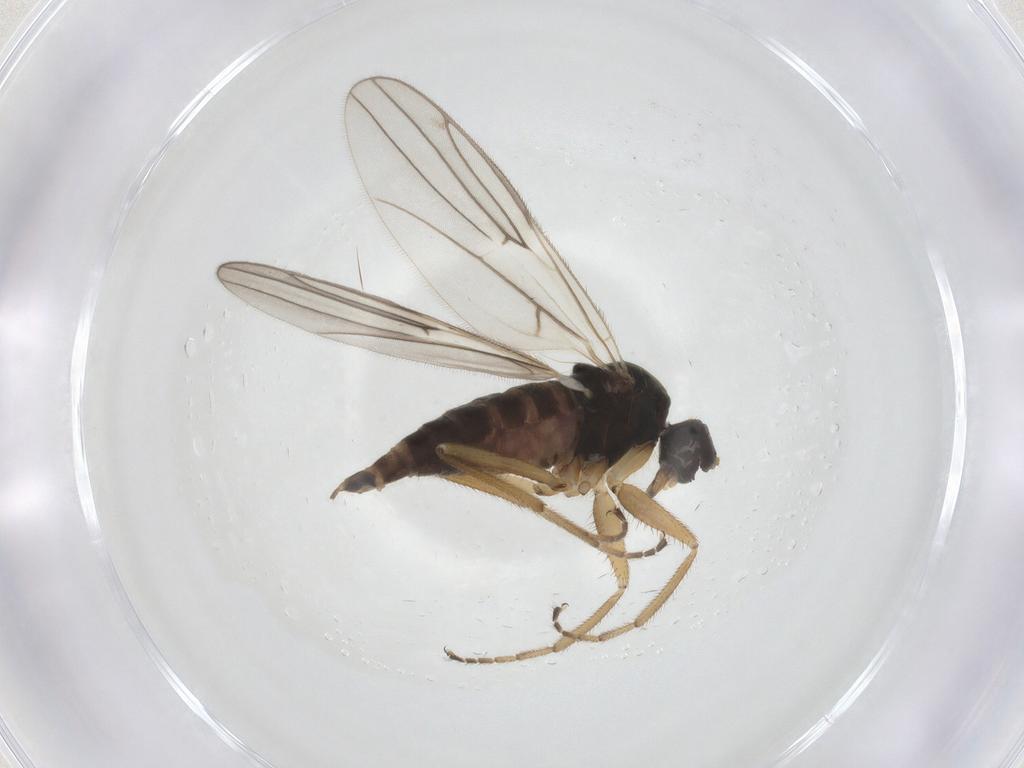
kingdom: Animalia
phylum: Arthropoda
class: Insecta
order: Diptera
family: Hybotidae
